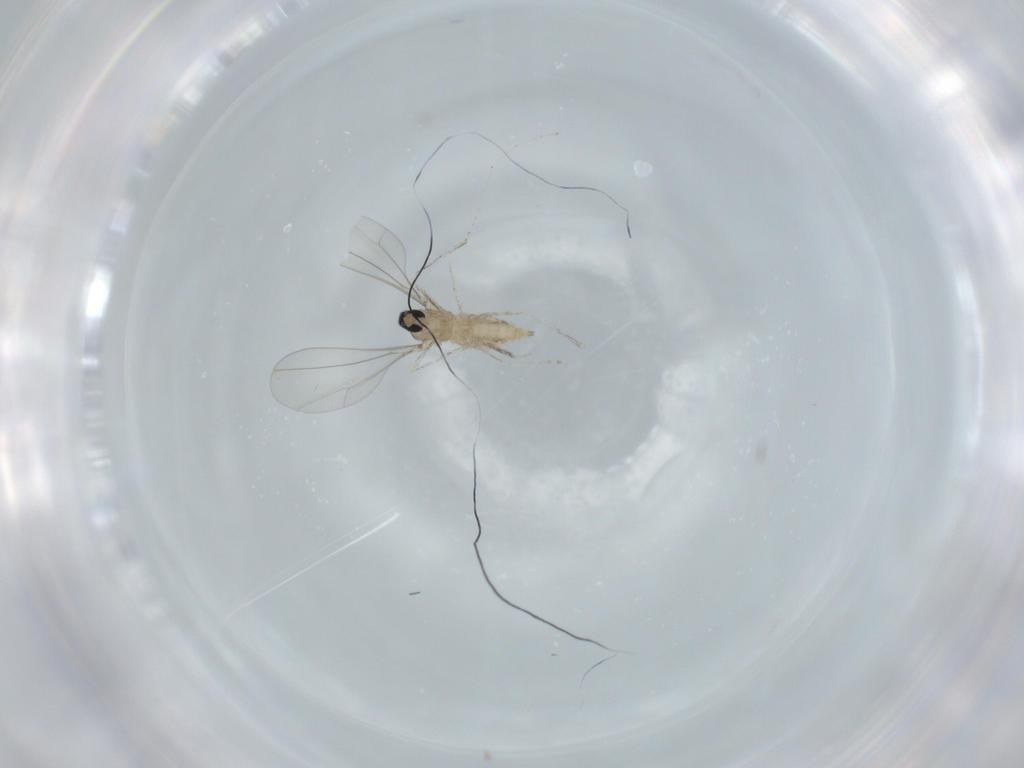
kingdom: Animalia
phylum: Arthropoda
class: Insecta
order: Diptera
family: Cecidomyiidae
